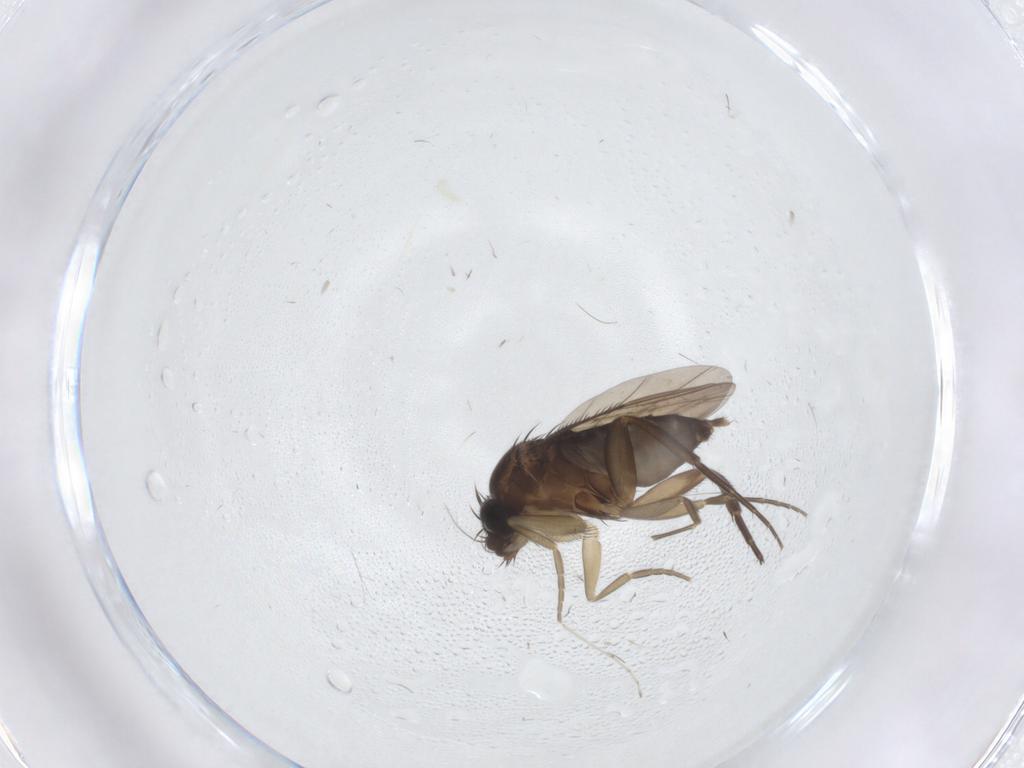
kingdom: Animalia
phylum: Arthropoda
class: Insecta
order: Diptera
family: Phoridae
